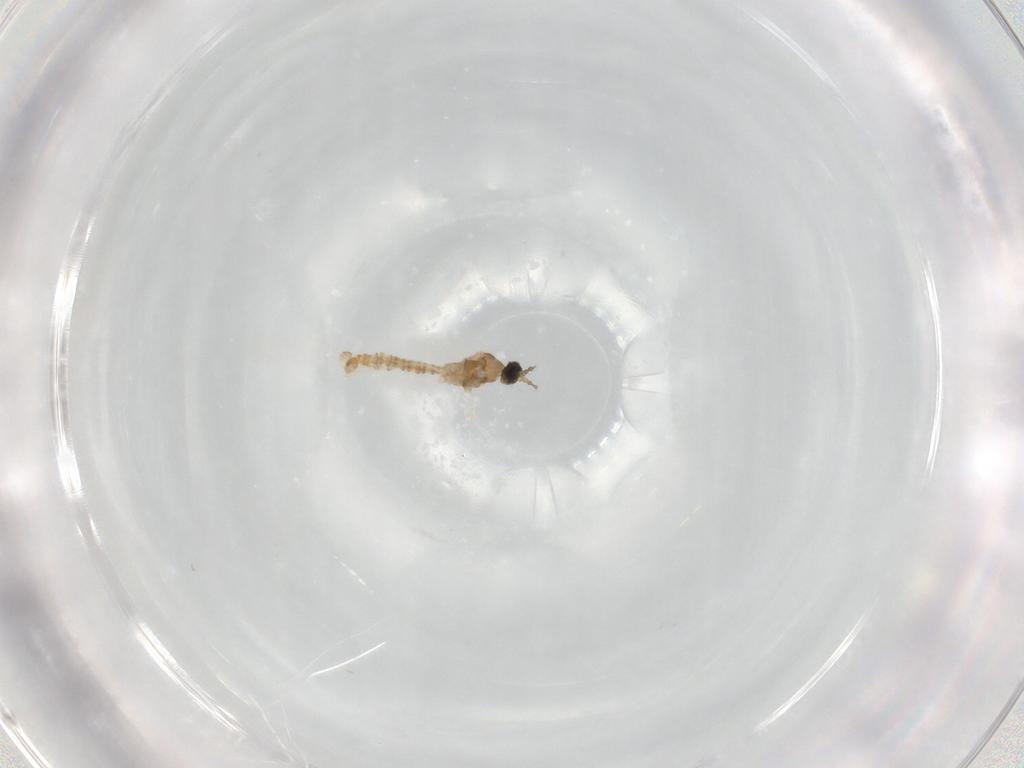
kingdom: Animalia
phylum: Arthropoda
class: Insecta
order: Diptera
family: Cecidomyiidae
